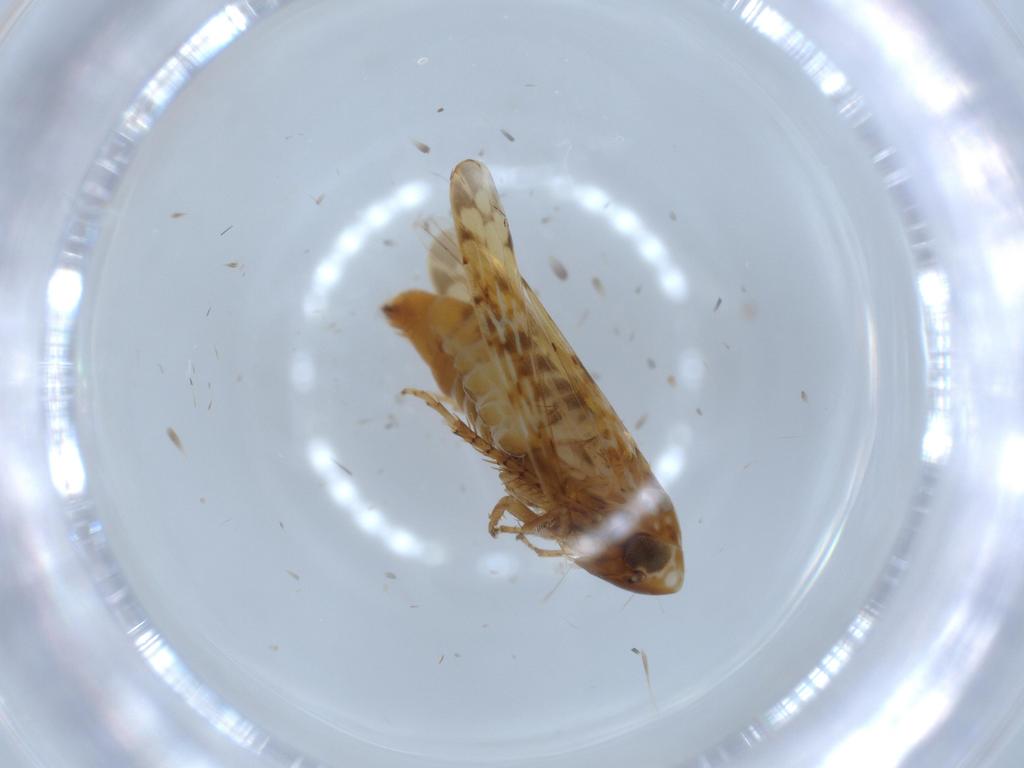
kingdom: Animalia
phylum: Arthropoda
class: Insecta
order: Hemiptera
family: Cicadellidae
